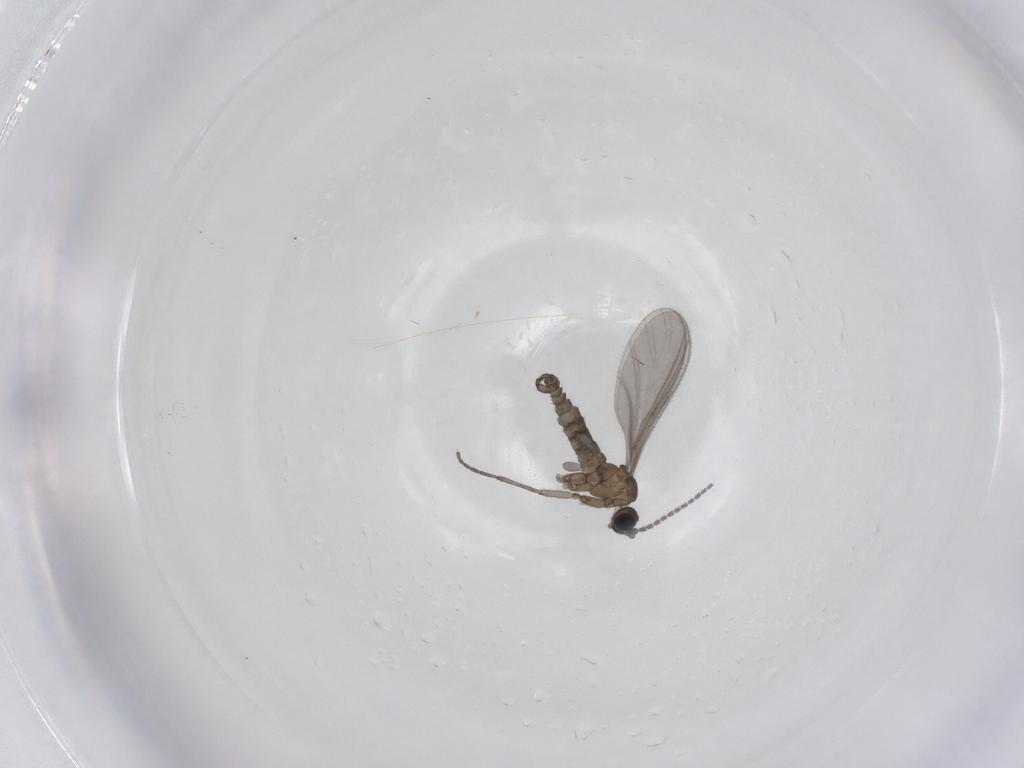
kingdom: Animalia
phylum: Arthropoda
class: Insecta
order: Diptera
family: Sciaridae
